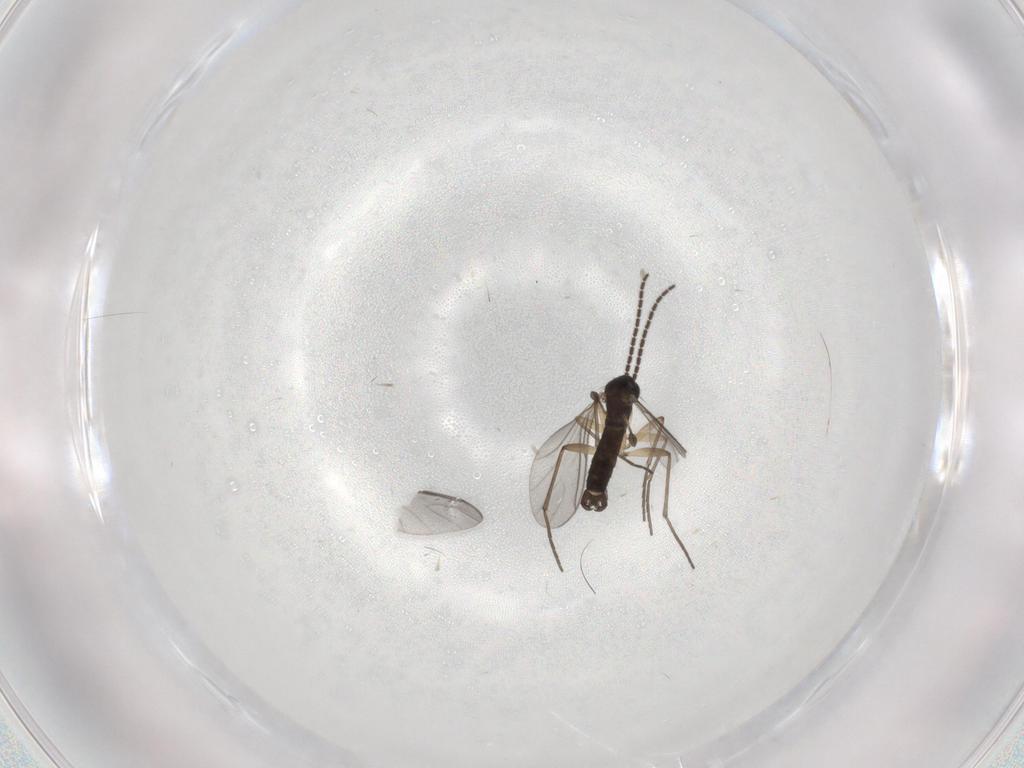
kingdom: Animalia
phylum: Arthropoda
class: Insecta
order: Diptera
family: Sciaridae
